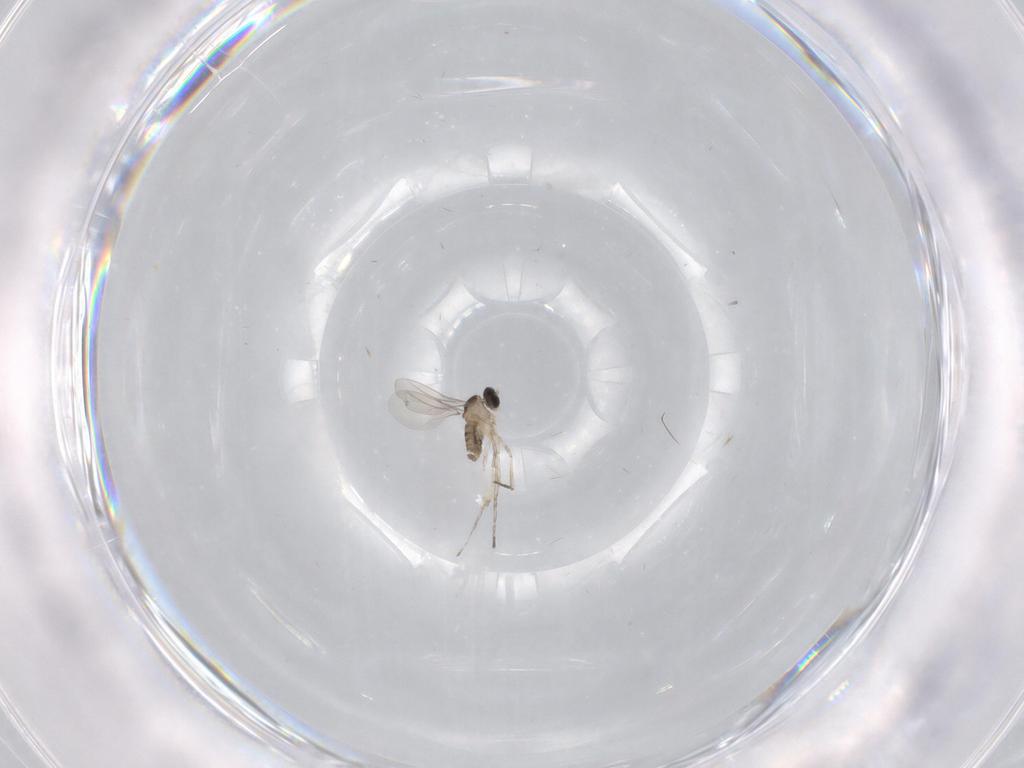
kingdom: Animalia
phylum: Arthropoda
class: Insecta
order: Diptera
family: Cecidomyiidae
